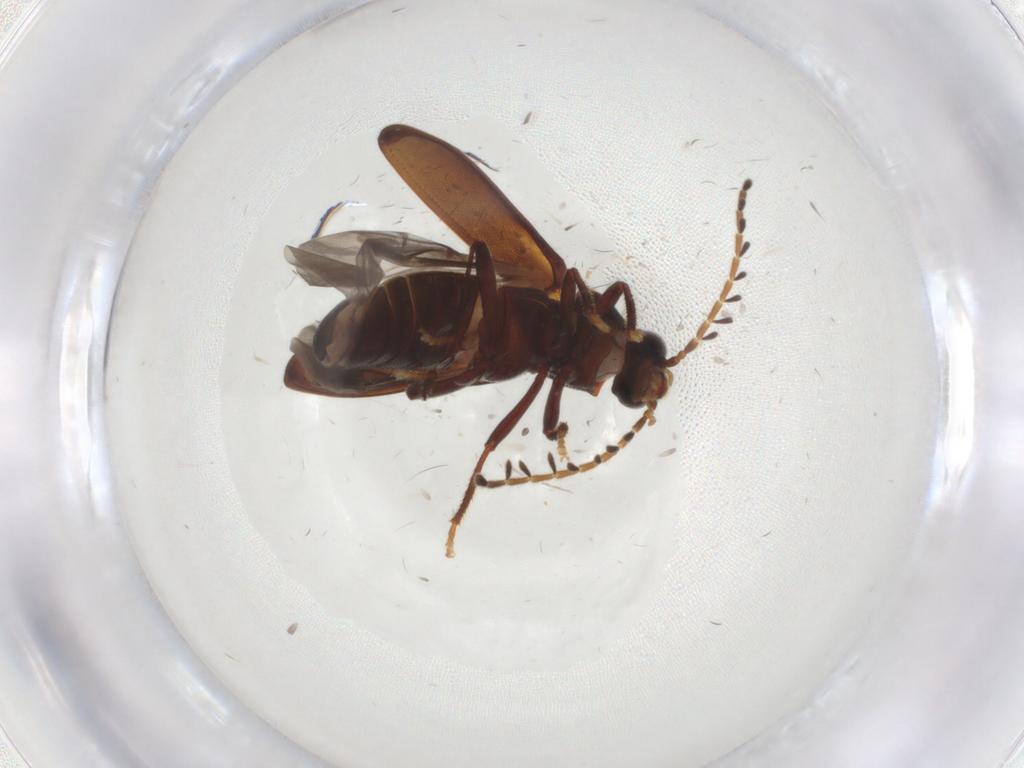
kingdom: Animalia
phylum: Arthropoda
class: Insecta
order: Coleoptera
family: Ptilodactylidae
